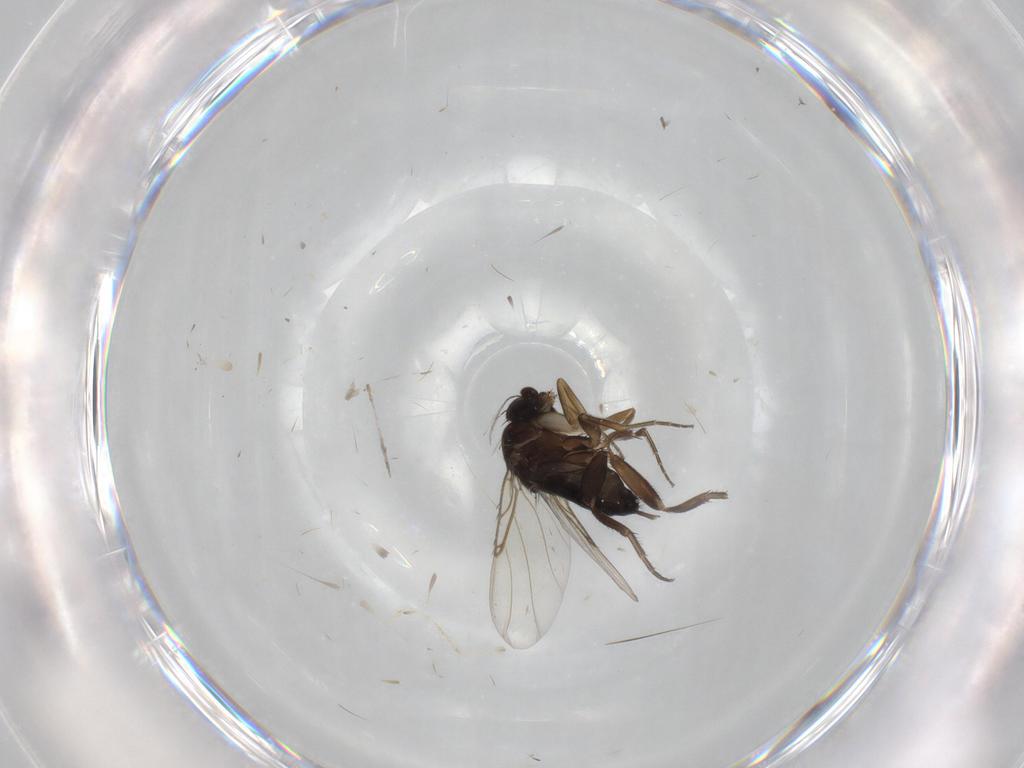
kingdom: Animalia
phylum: Arthropoda
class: Insecta
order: Diptera
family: Phoridae
